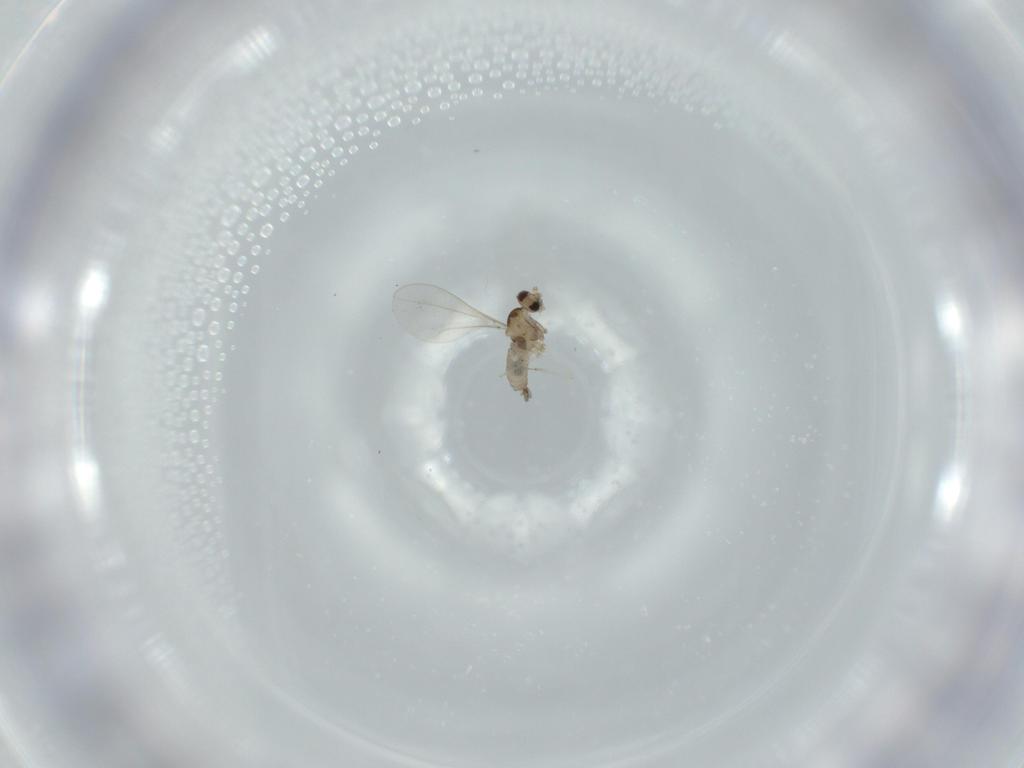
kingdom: Animalia
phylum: Arthropoda
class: Insecta
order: Diptera
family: Cecidomyiidae
